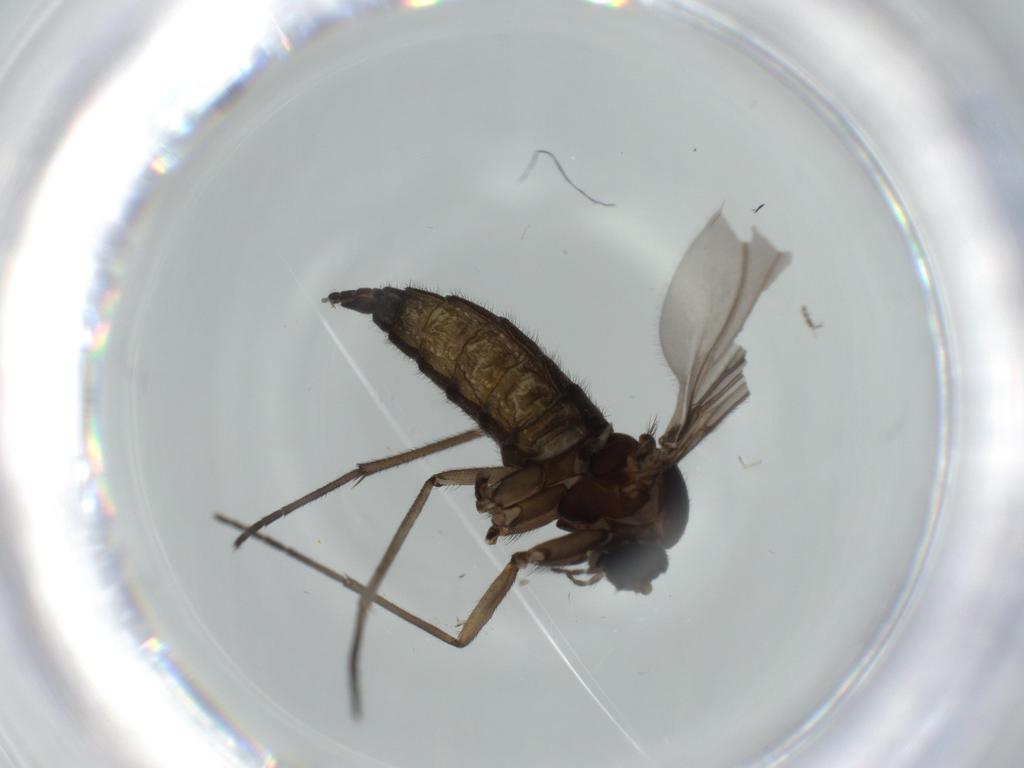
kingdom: Animalia
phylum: Arthropoda
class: Insecta
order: Diptera
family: Sciaridae
